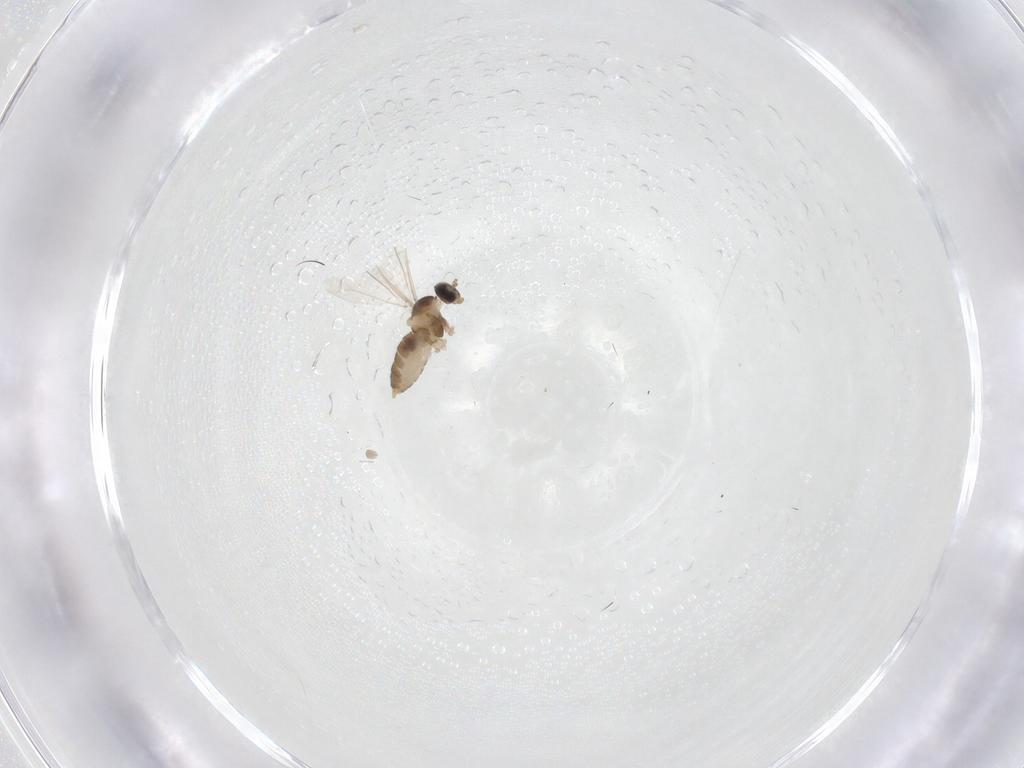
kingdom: Animalia
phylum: Arthropoda
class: Insecta
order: Diptera
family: Cecidomyiidae
